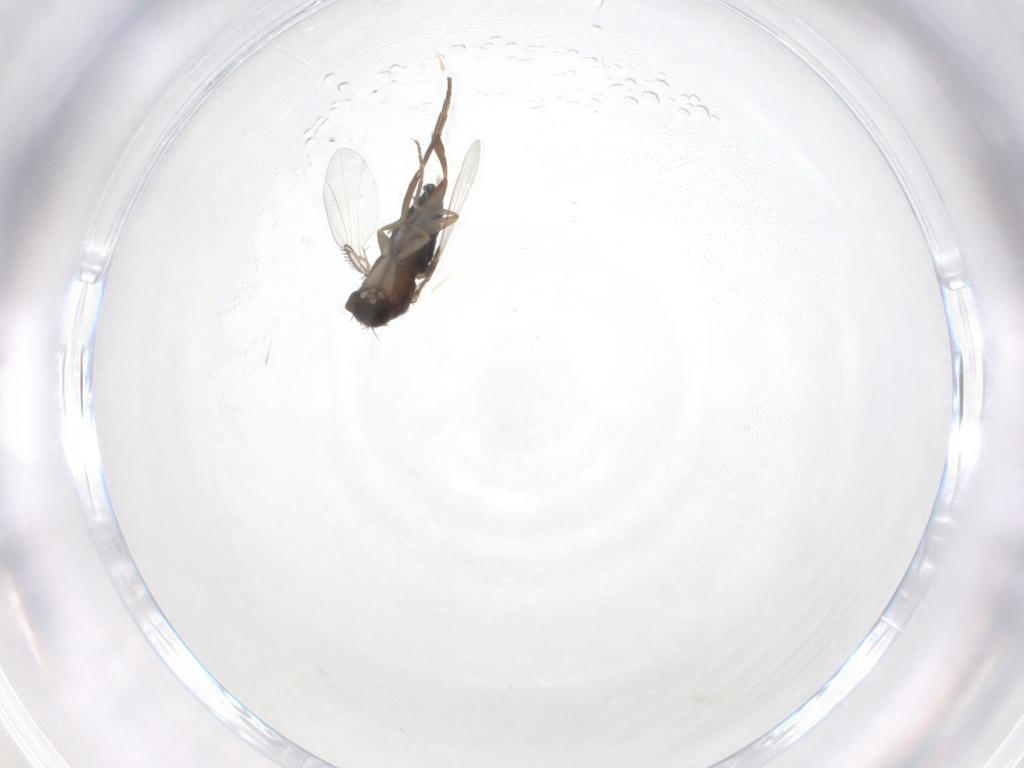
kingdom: Animalia
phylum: Arthropoda
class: Insecta
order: Diptera
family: Phoridae
